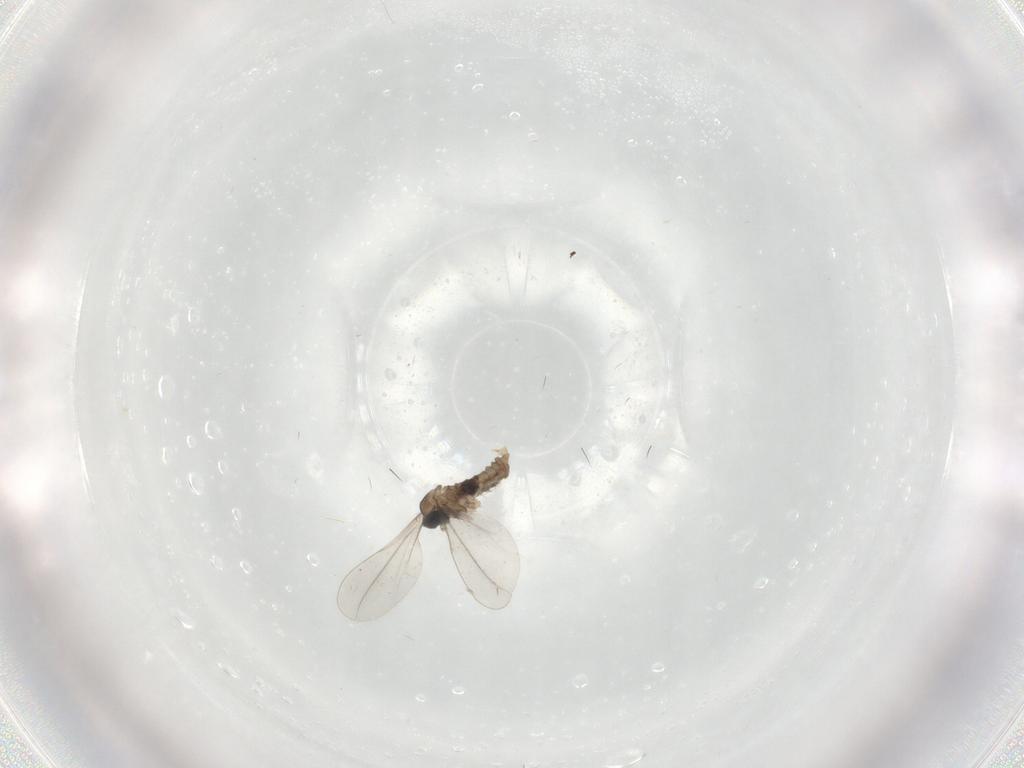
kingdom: Animalia
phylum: Arthropoda
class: Insecta
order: Diptera
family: Cecidomyiidae
